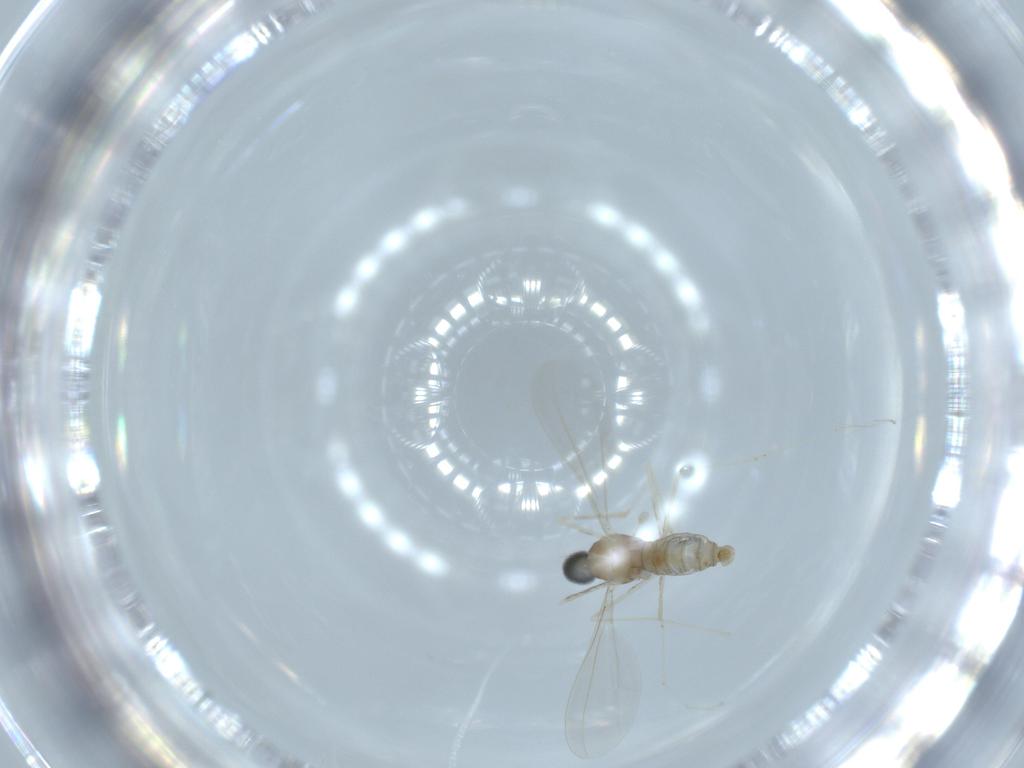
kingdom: Animalia
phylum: Arthropoda
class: Insecta
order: Diptera
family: Cecidomyiidae
